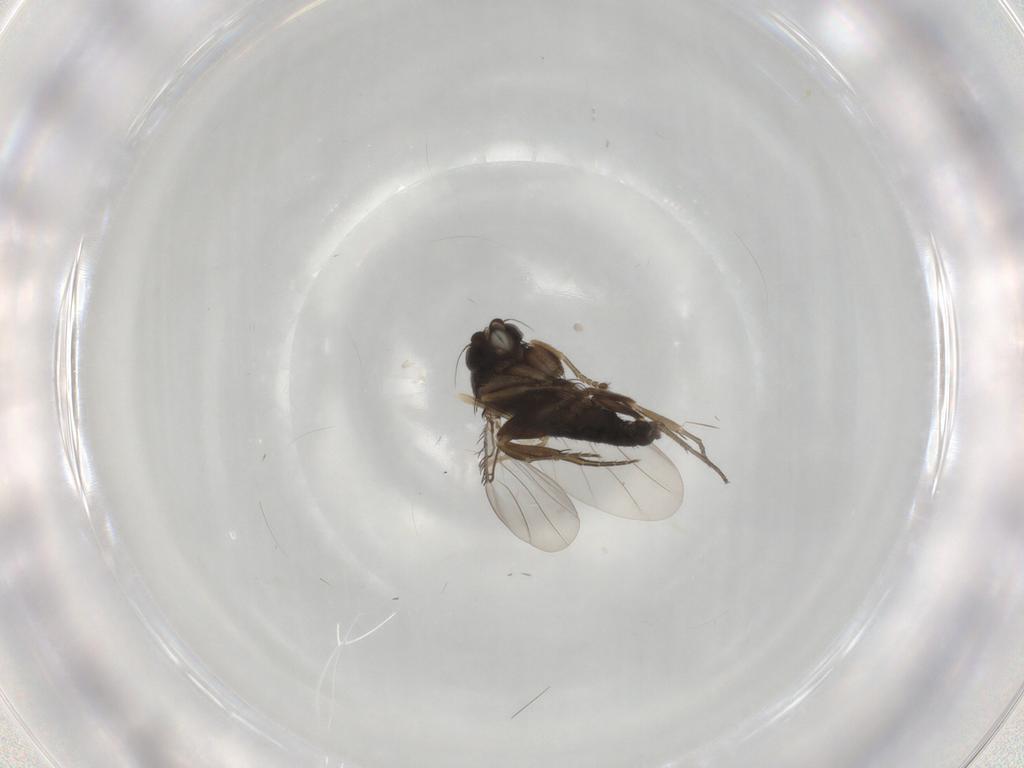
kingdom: Animalia
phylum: Arthropoda
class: Insecta
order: Diptera
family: Phoridae
